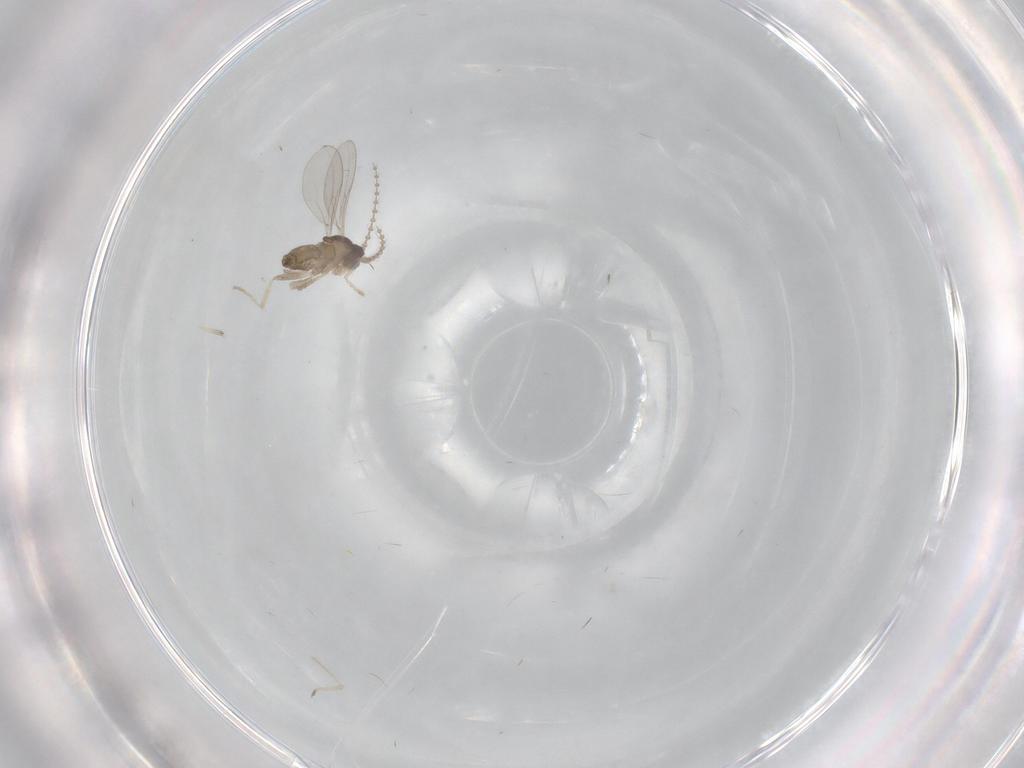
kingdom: Animalia
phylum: Arthropoda
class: Insecta
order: Diptera
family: Cecidomyiidae
